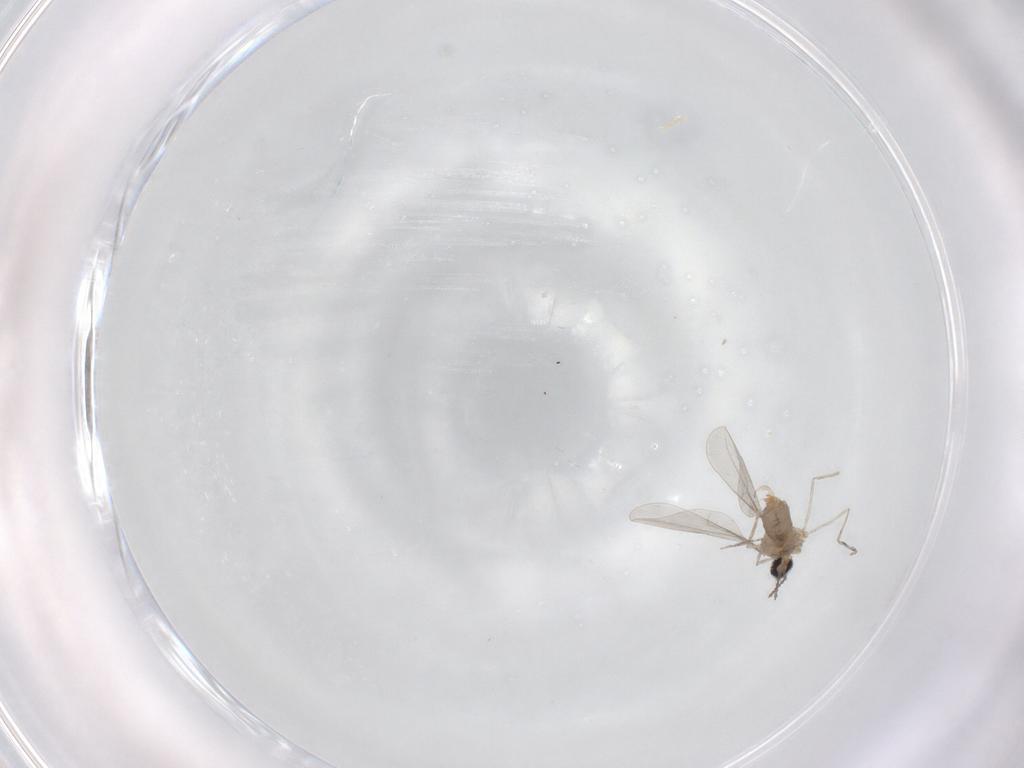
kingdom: Animalia
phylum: Arthropoda
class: Insecta
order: Diptera
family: Cecidomyiidae
